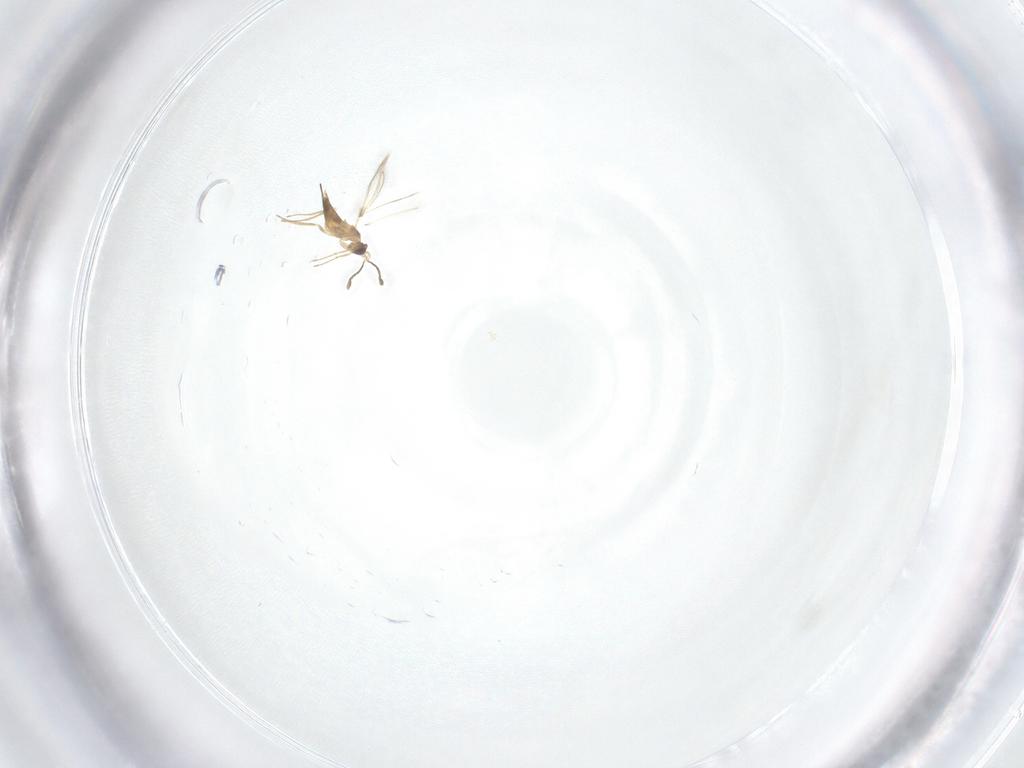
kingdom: Animalia
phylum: Arthropoda
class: Insecta
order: Hymenoptera
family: Mymaridae
